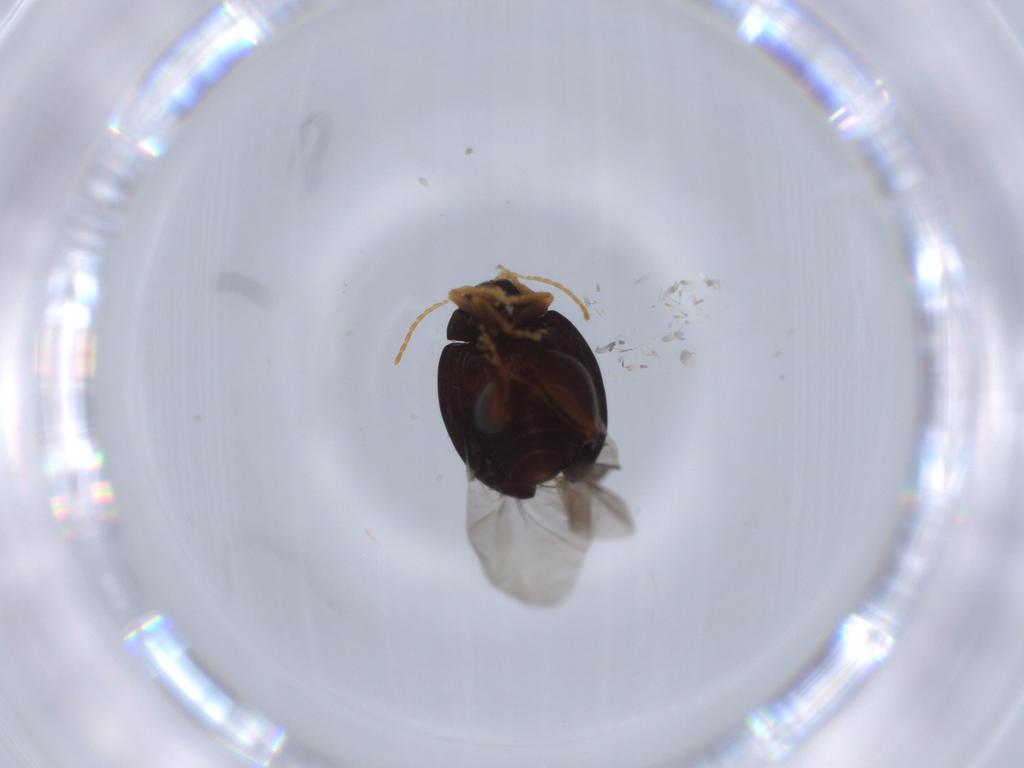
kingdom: Animalia
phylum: Arthropoda
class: Insecta
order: Coleoptera
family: Chrysomelidae
